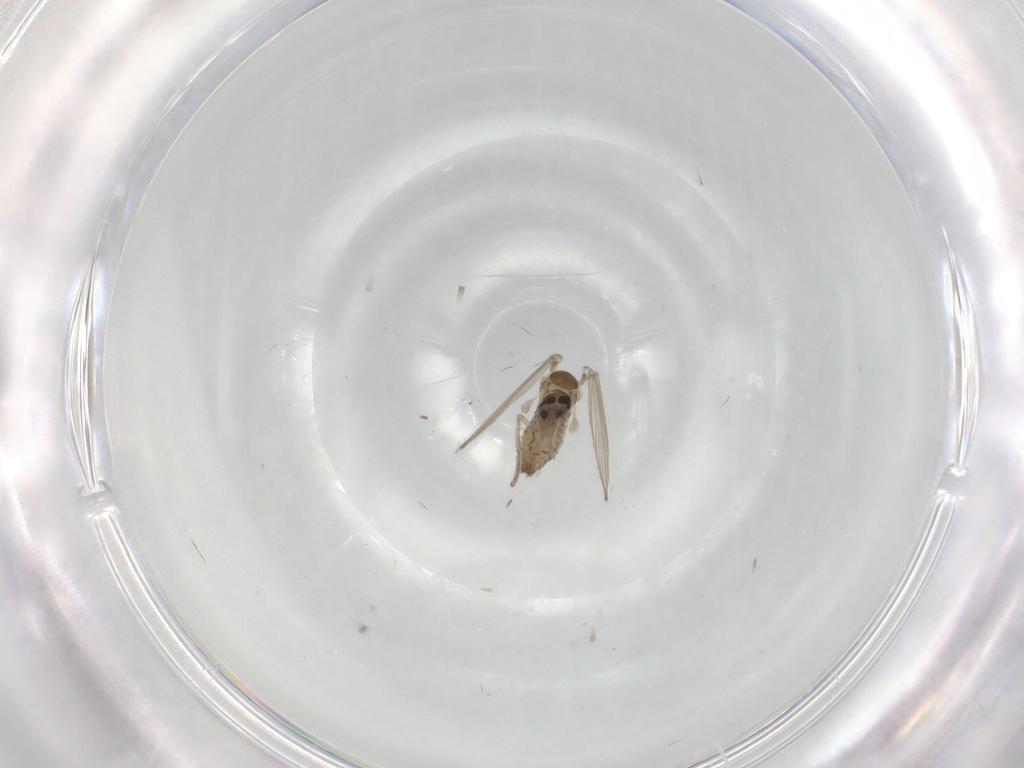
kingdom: Animalia
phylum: Arthropoda
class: Insecta
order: Diptera
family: Psychodidae
